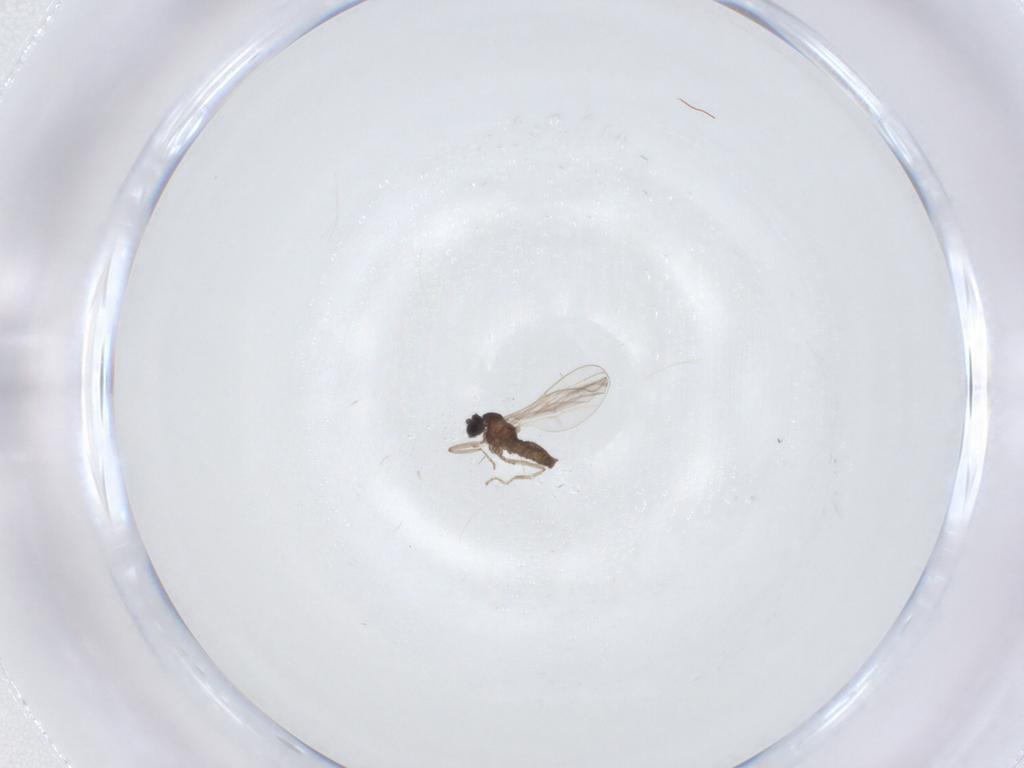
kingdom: Animalia
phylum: Arthropoda
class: Insecta
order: Diptera
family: Cecidomyiidae
